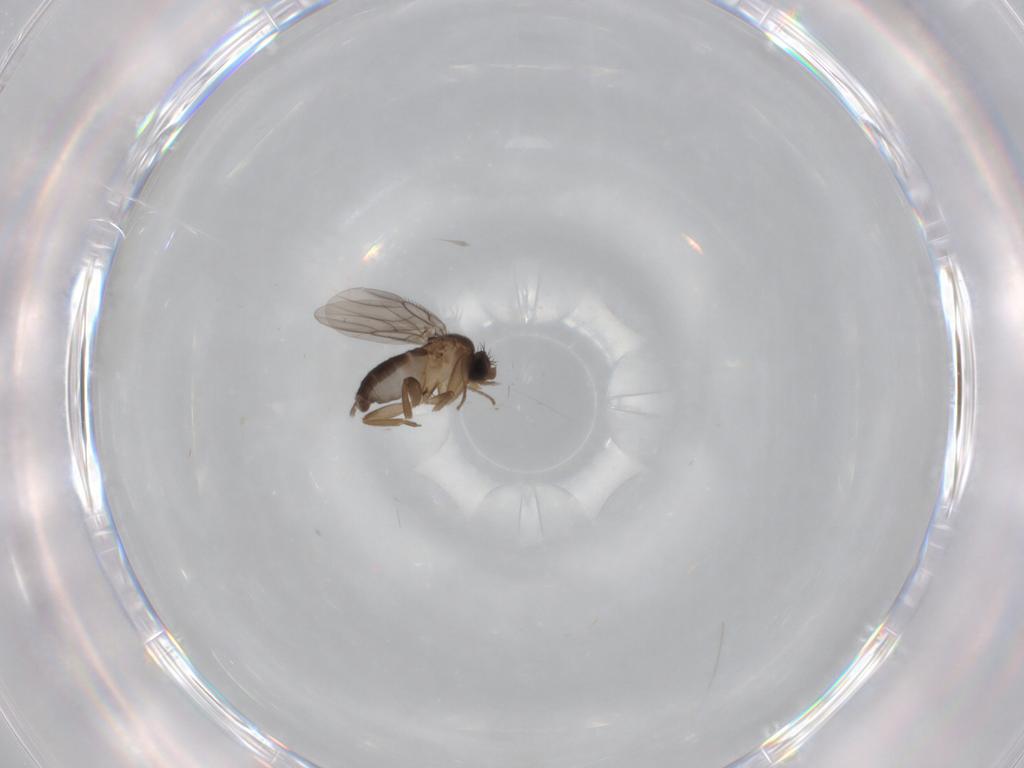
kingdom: Animalia
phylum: Arthropoda
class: Insecta
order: Diptera
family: Phoridae
